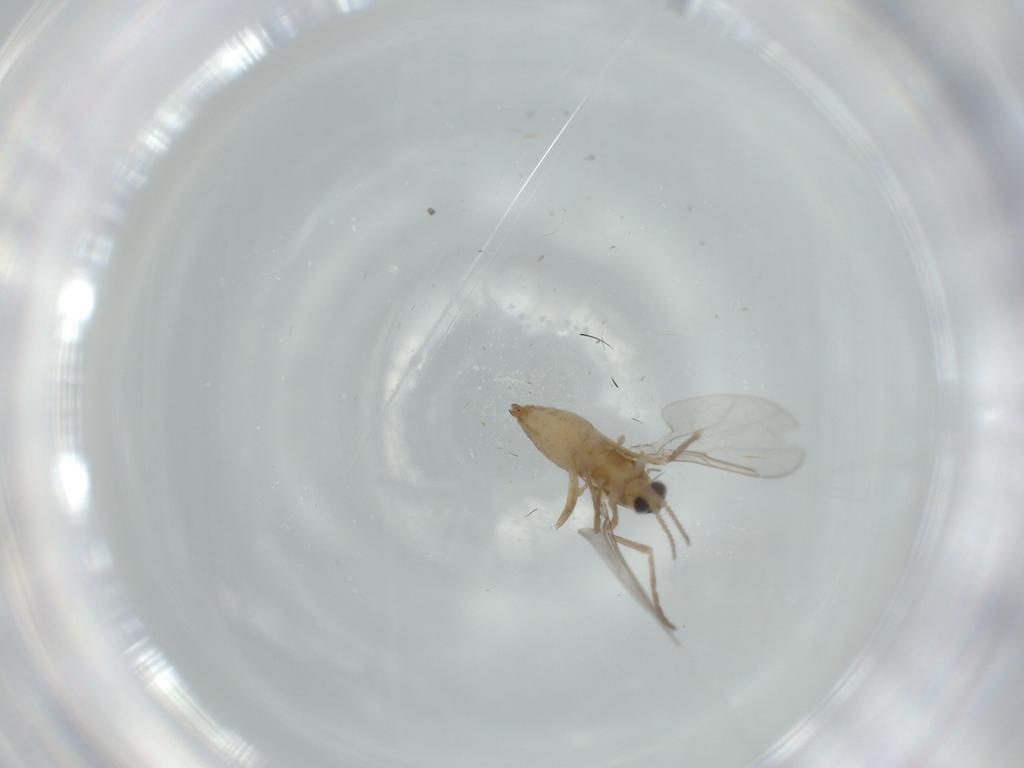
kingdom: Animalia
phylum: Arthropoda
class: Insecta
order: Diptera
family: Cecidomyiidae
